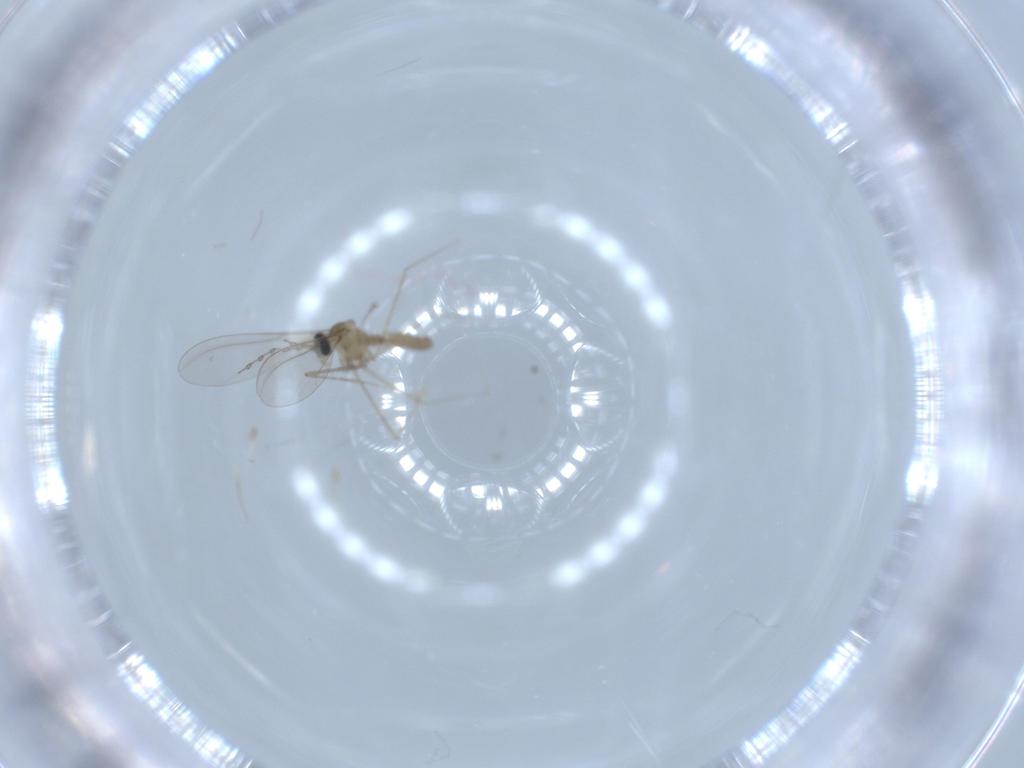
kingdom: Animalia
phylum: Arthropoda
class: Insecta
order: Diptera
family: Cecidomyiidae
